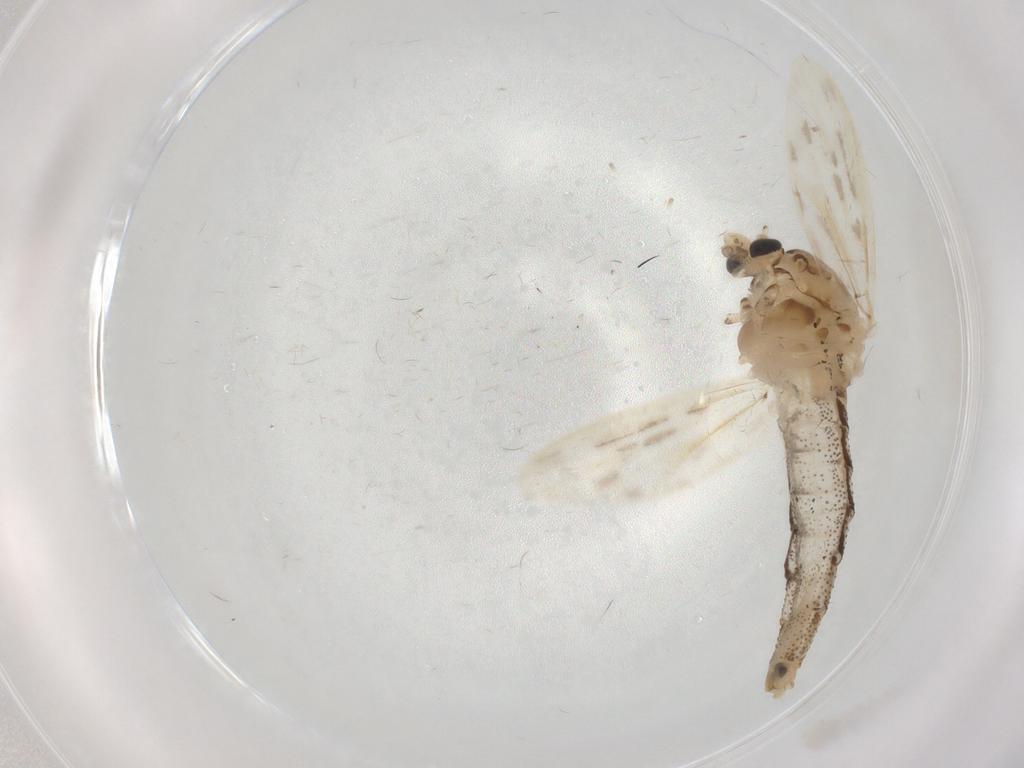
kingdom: Animalia
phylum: Arthropoda
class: Insecta
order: Diptera
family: Chaoboridae
